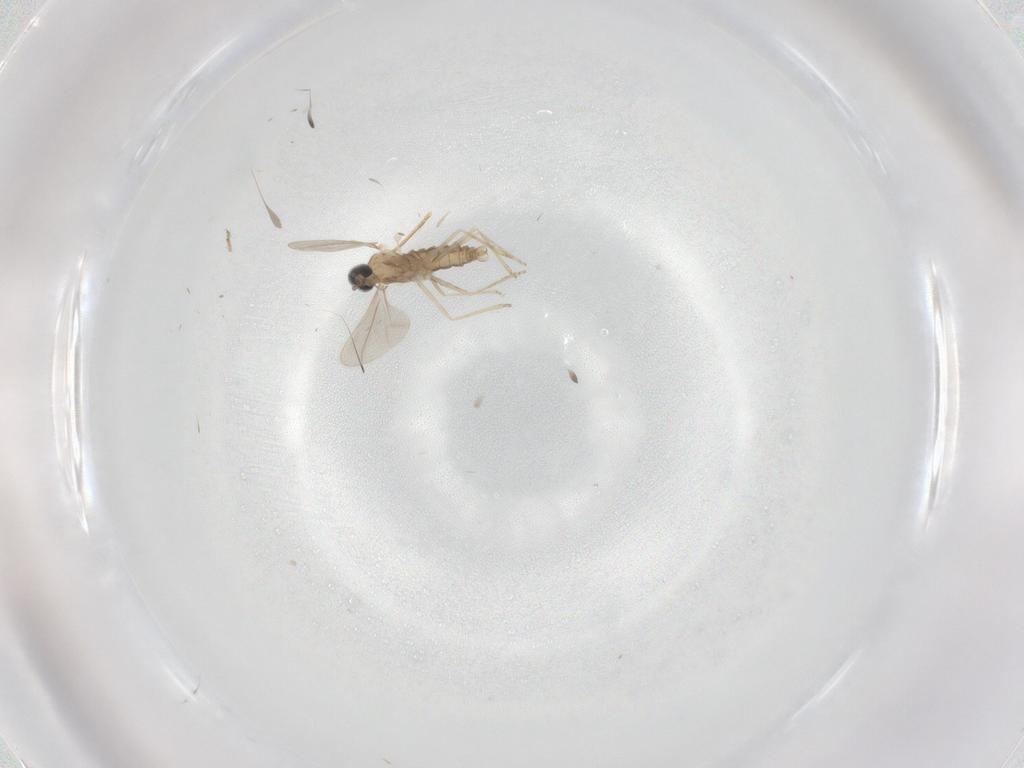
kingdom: Animalia
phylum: Arthropoda
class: Insecta
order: Diptera
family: Cecidomyiidae
